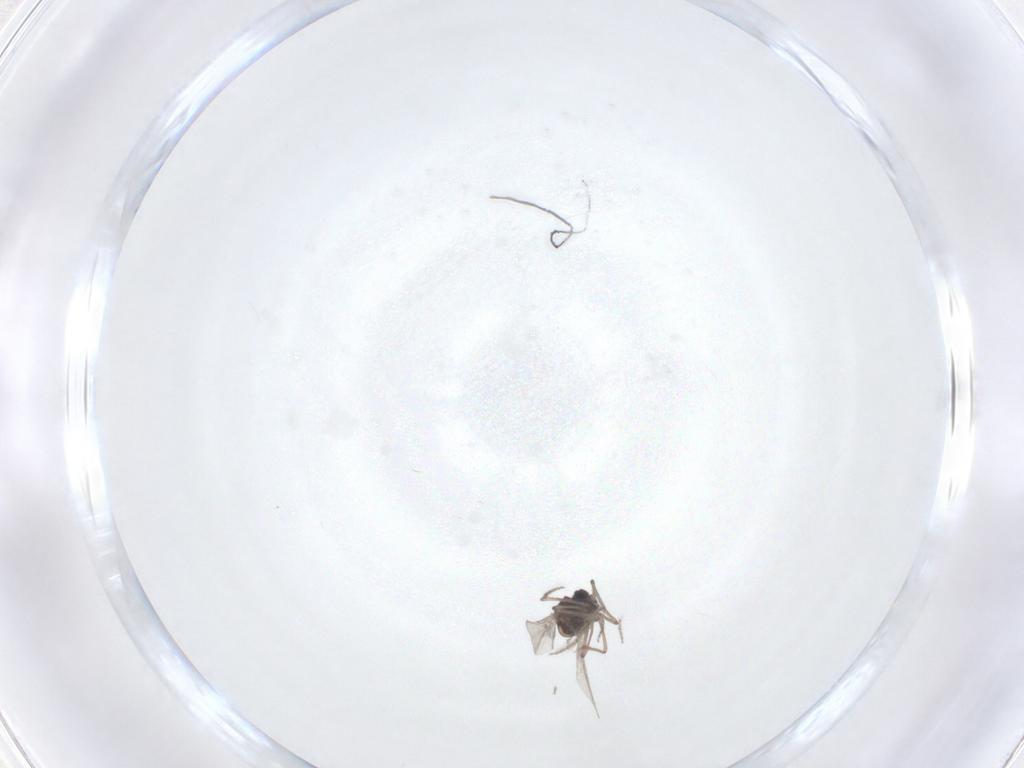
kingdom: Animalia
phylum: Arthropoda
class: Insecta
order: Diptera
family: Ceratopogonidae
